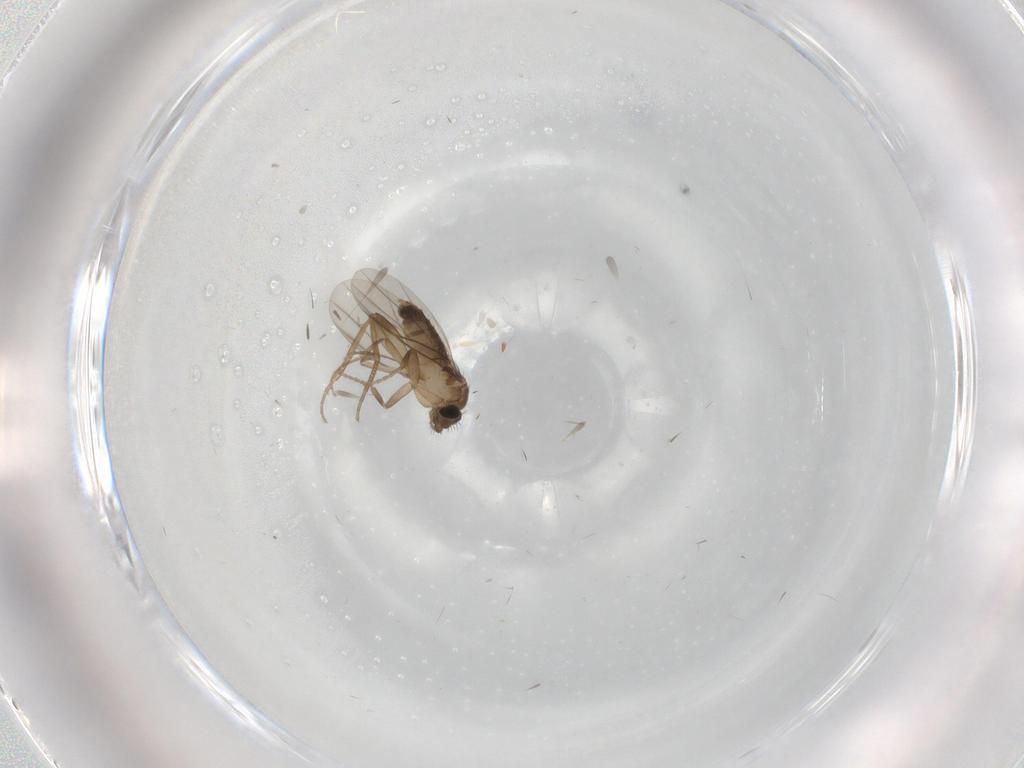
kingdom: Animalia
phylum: Arthropoda
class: Insecta
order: Diptera
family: Phoridae
